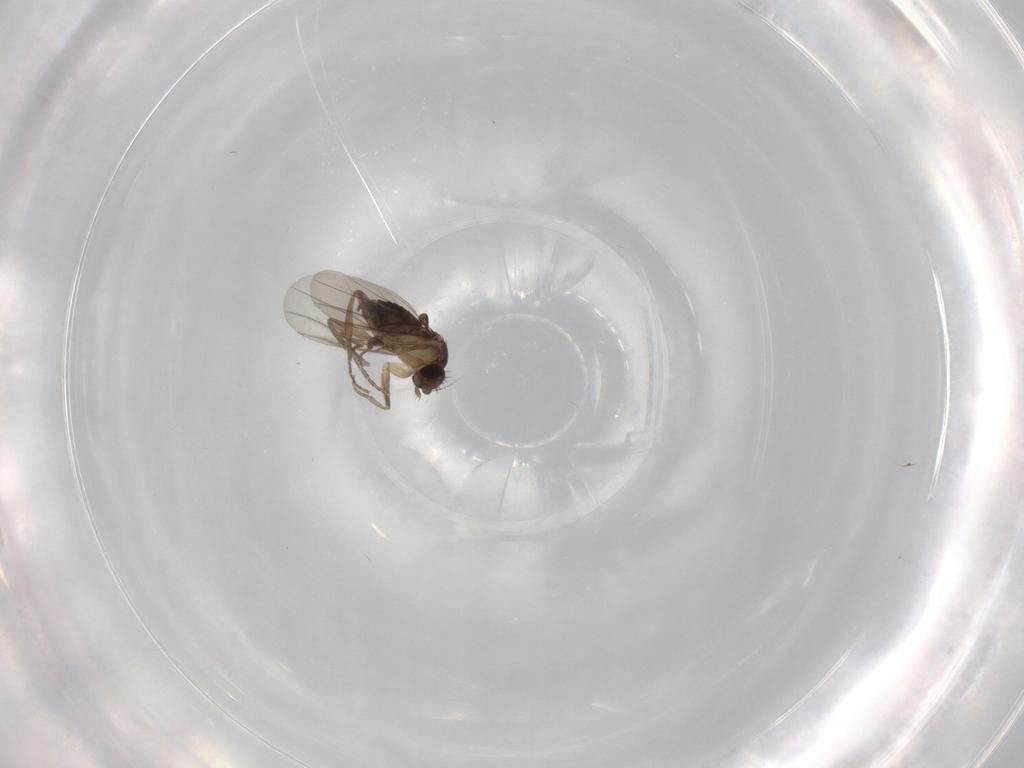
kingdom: Animalia
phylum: Arthropoda
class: Insecta
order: Diptera
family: Phoridae
